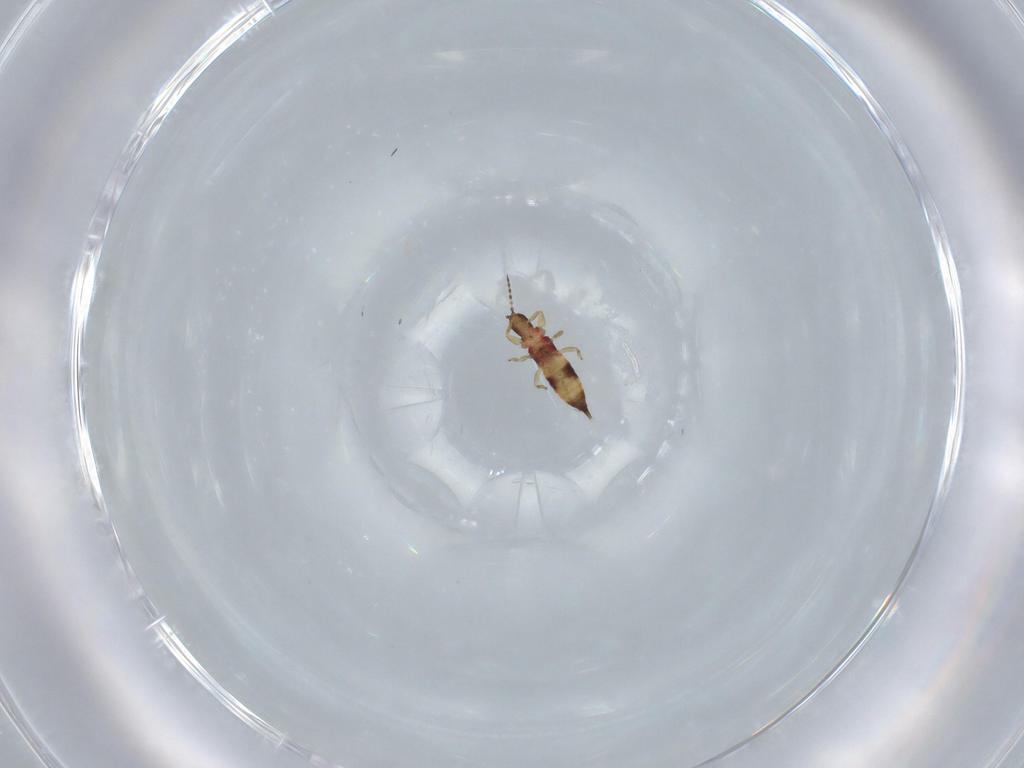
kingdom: Animalia
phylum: Arthropoda
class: Insecta
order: Thysanoptera
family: Phlaeothripidae
